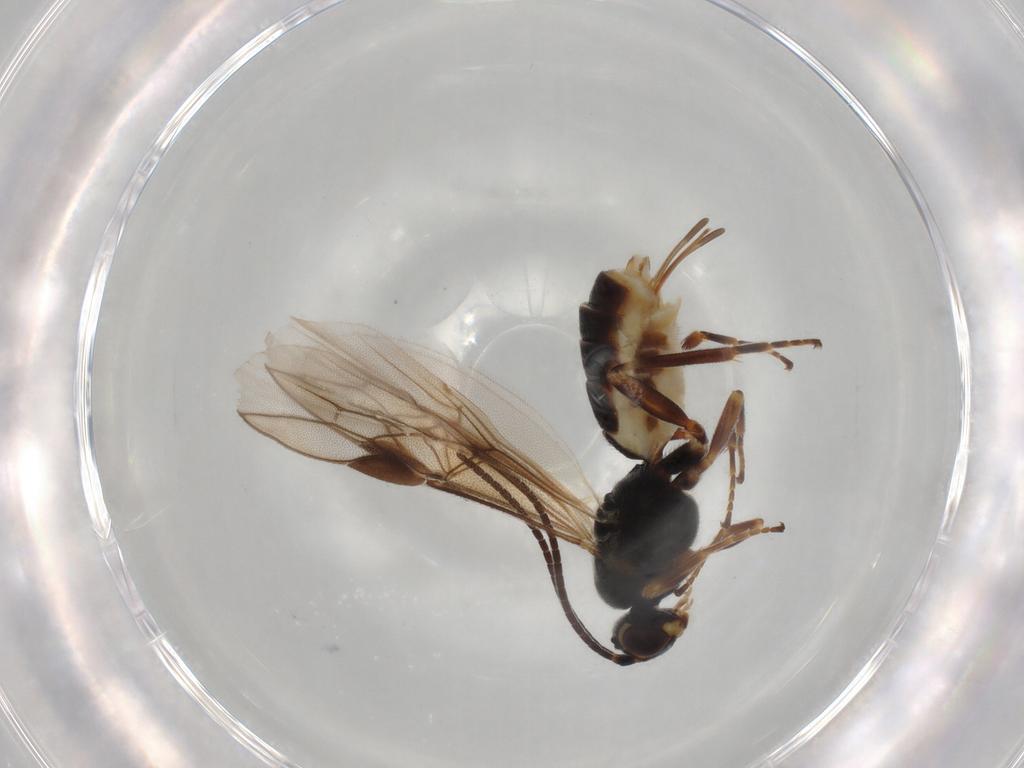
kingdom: Animalia
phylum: Arthropoda
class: Insecta
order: Hymenoptera
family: Braconidae
